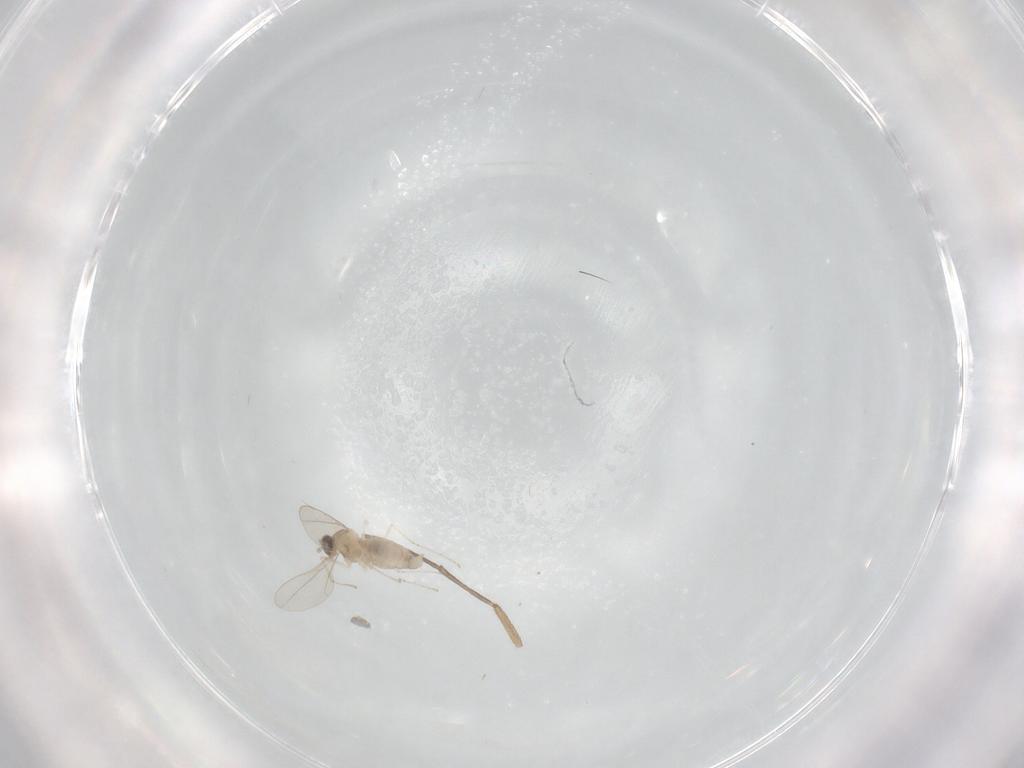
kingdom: Animalia
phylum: Arthropoda
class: Insecta
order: Diptera
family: Cecidomyiidae
